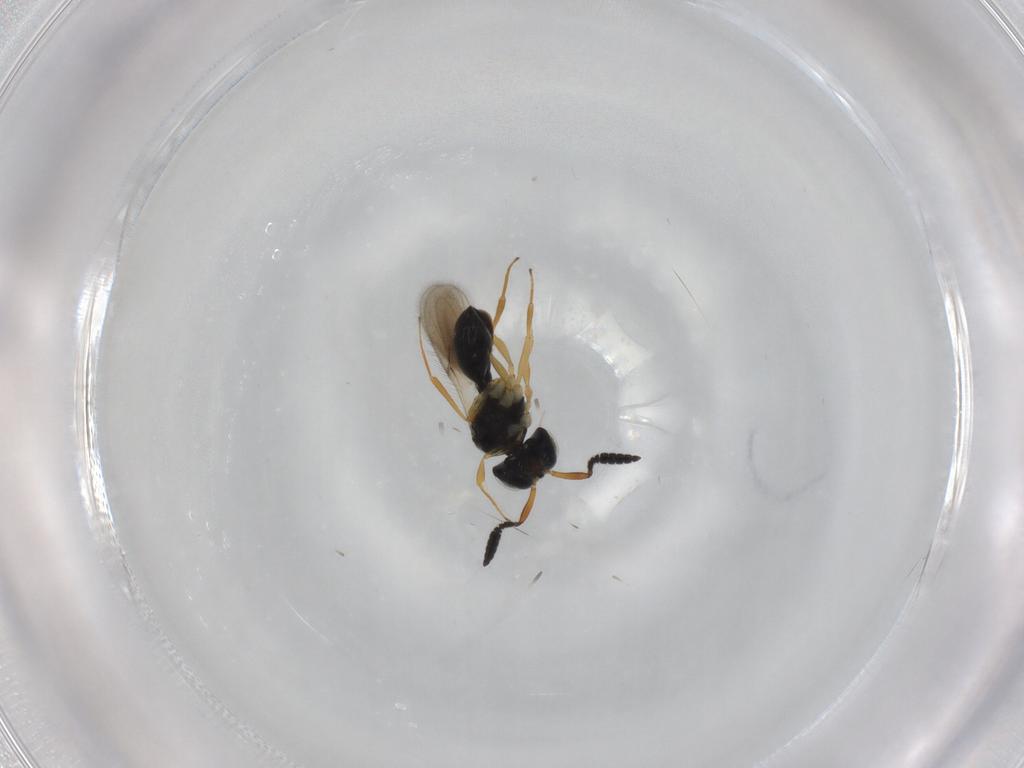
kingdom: Animalia
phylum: Arthropoda
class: Insecta
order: Hymenoptera
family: Scelionidae
